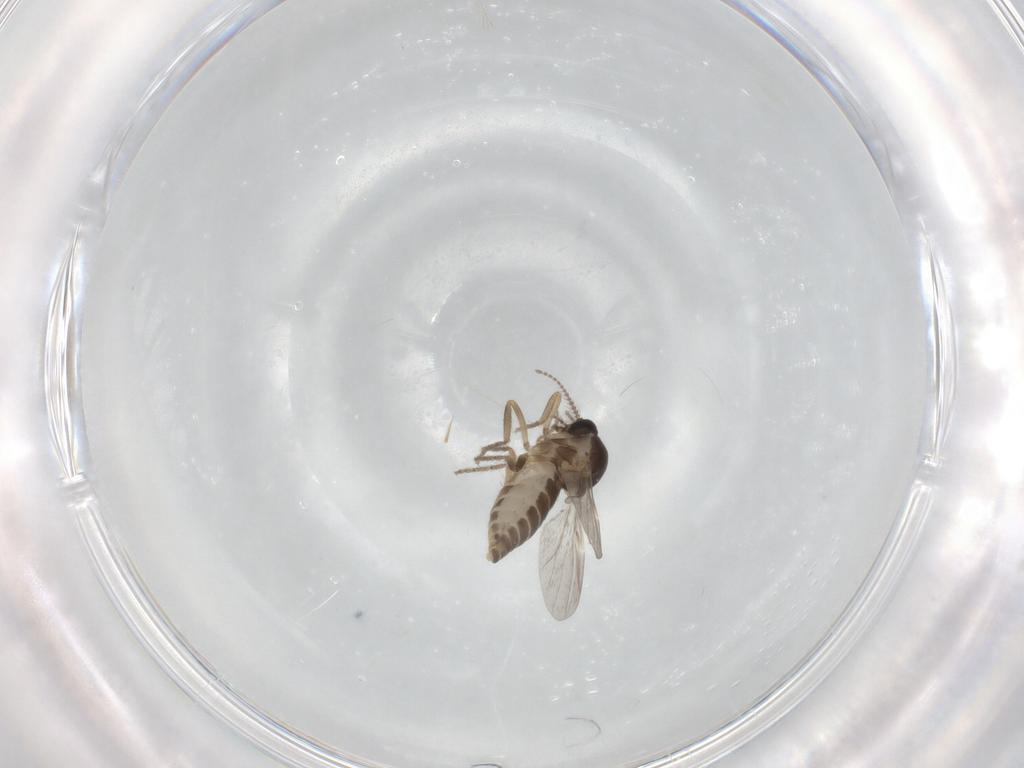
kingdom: Animalia
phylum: Arthropoda
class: Insecta
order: Diptera
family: Ceratopogonidae
